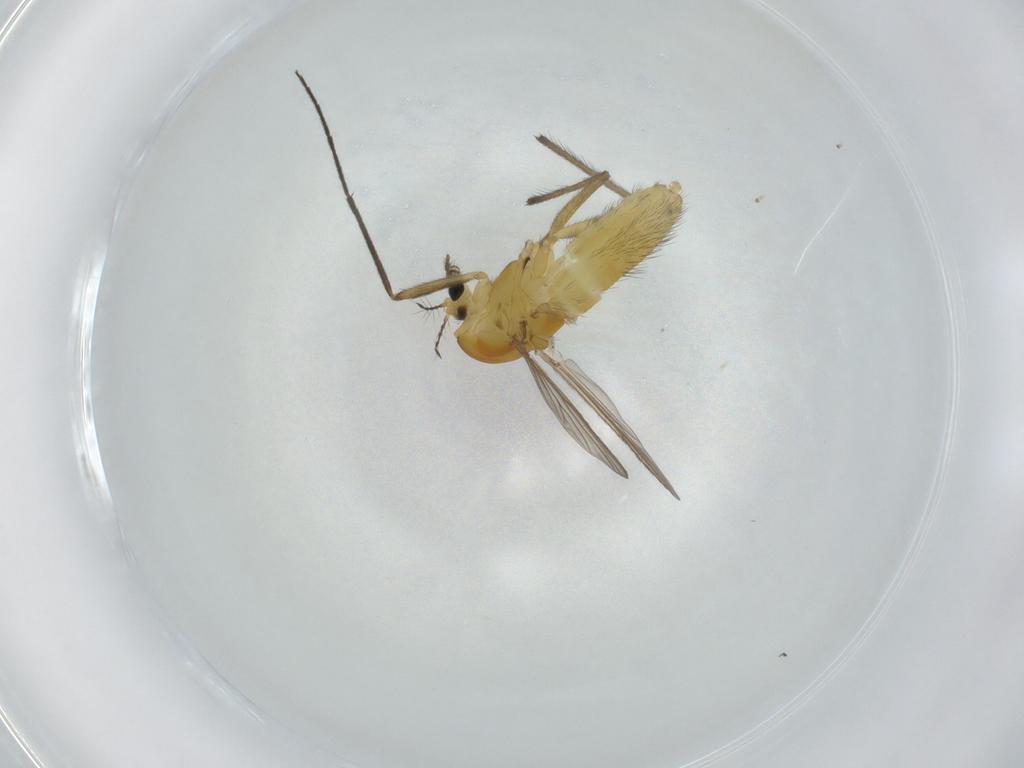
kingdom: Animalia
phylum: Arthropoda
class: Insecta
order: Diptera
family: Chironomidae
